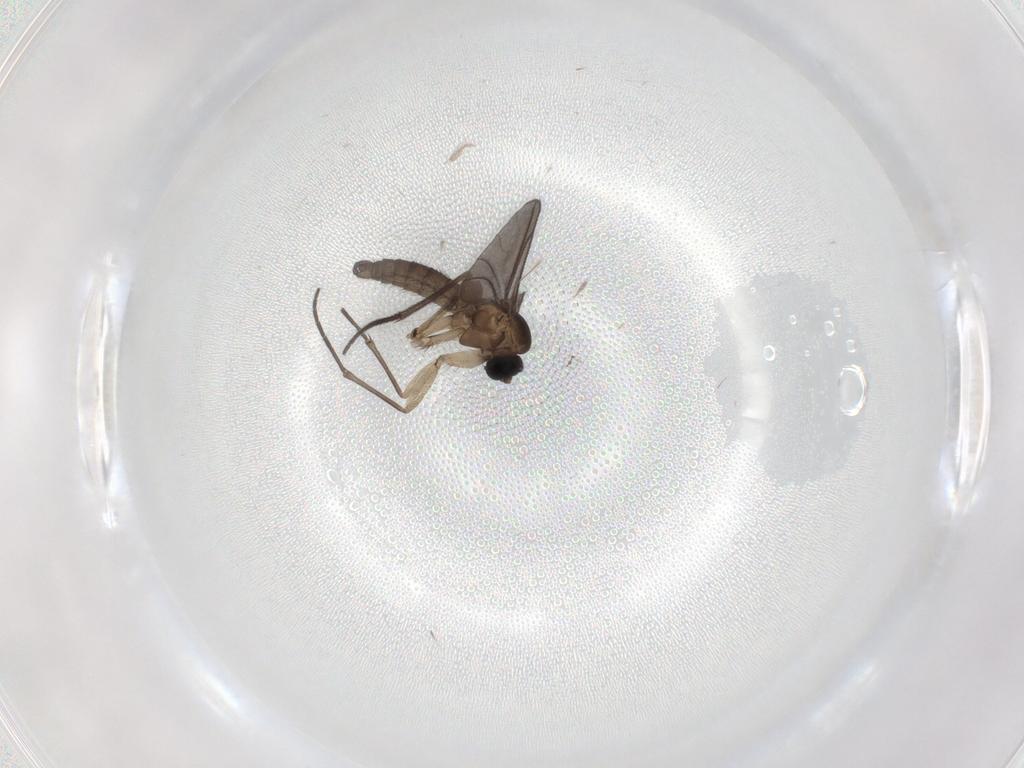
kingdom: Animalia
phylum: Arthropoda
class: Insecta
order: Diptera
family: Sciaridae
